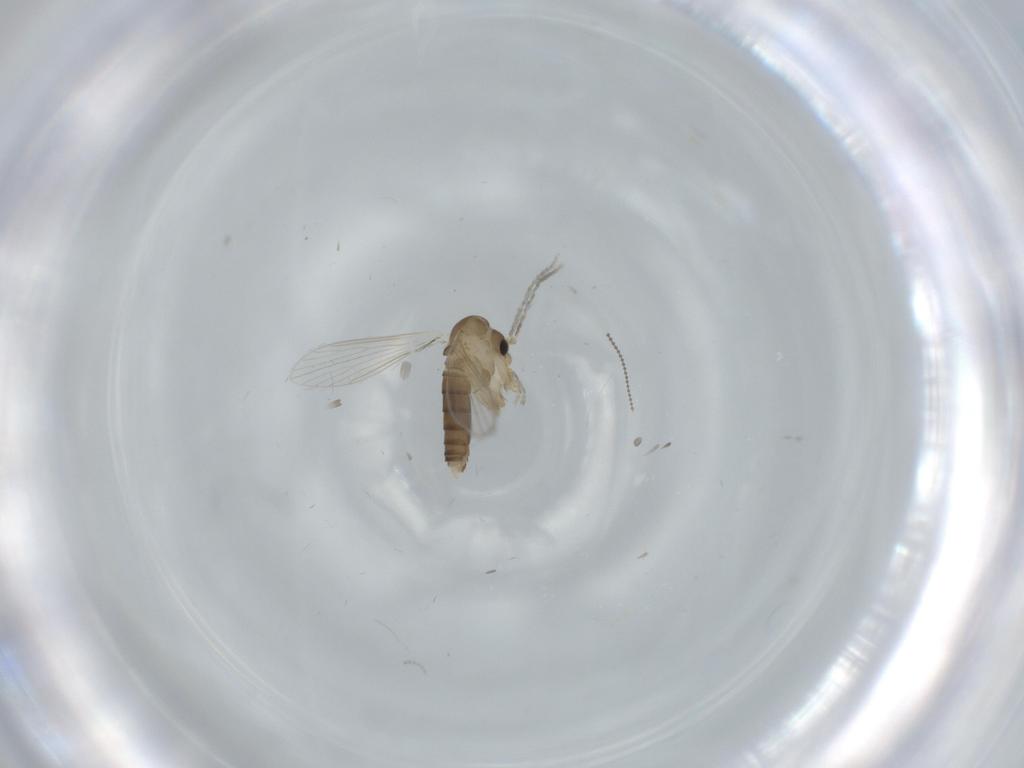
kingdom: Animalia
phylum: Arthropoda
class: Insecta
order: Diptera
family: Psychodidae
